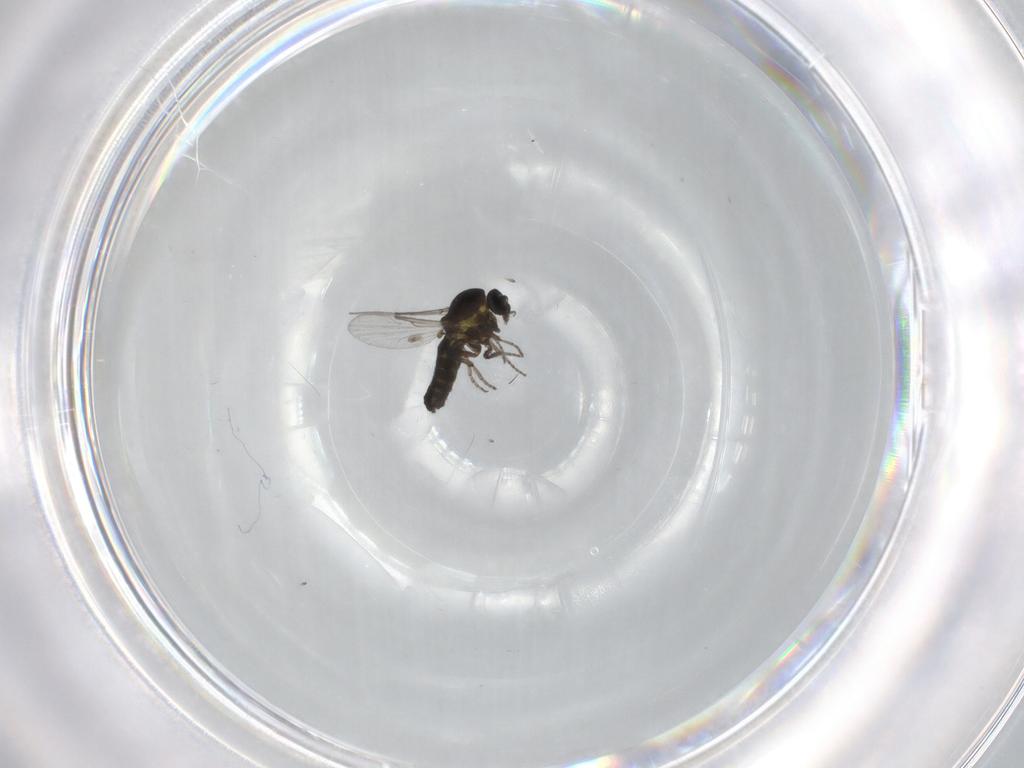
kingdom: Animalia
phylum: Arthropoda
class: Insecta
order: Diptera
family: Ceratopogonidae
